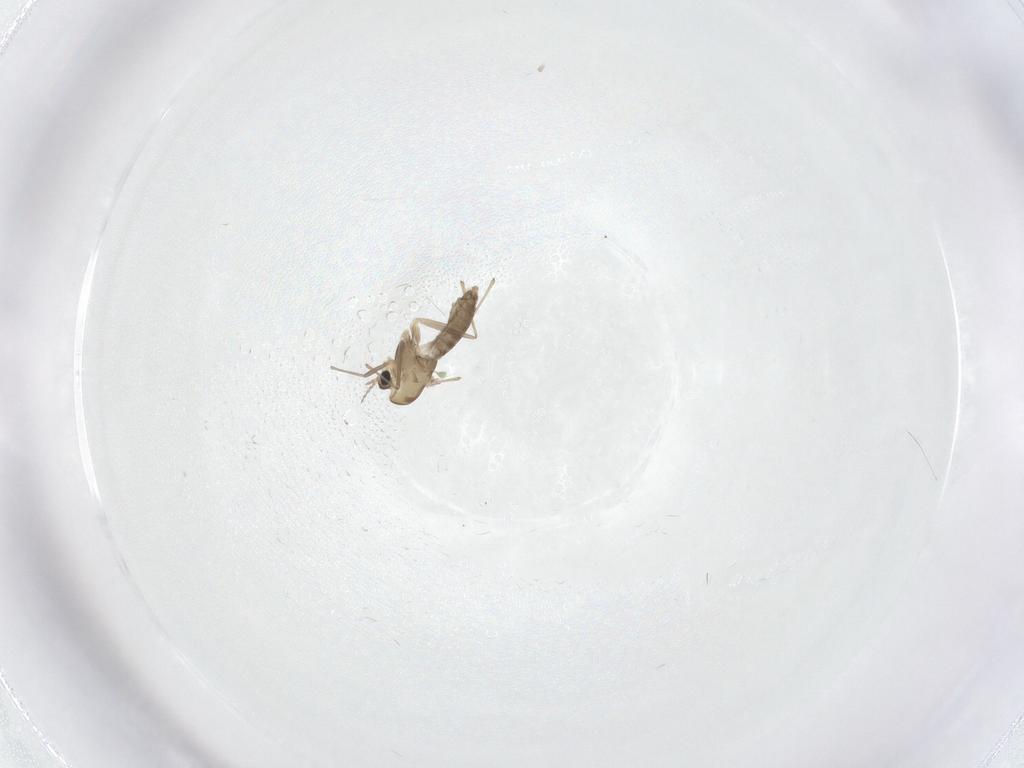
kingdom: Animalia
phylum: Arthropoda
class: Insecta
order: Diptera
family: Chironomidae
